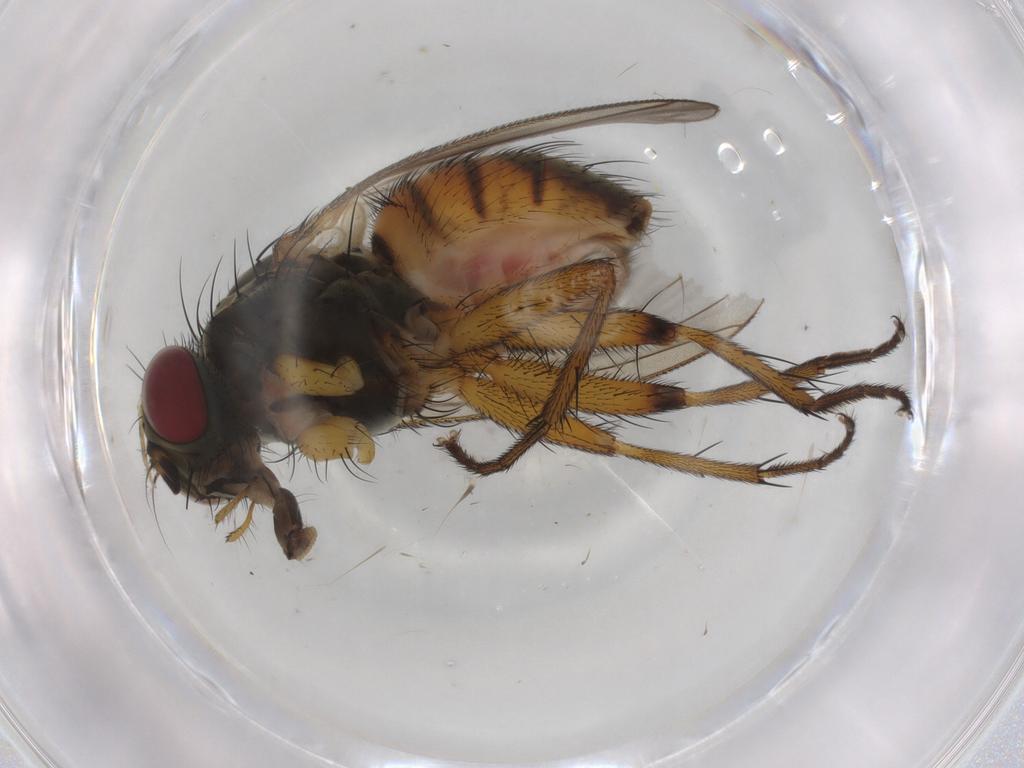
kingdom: Animalia
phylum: Arthropoda
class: Insecta
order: Diptera
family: Muscidae
